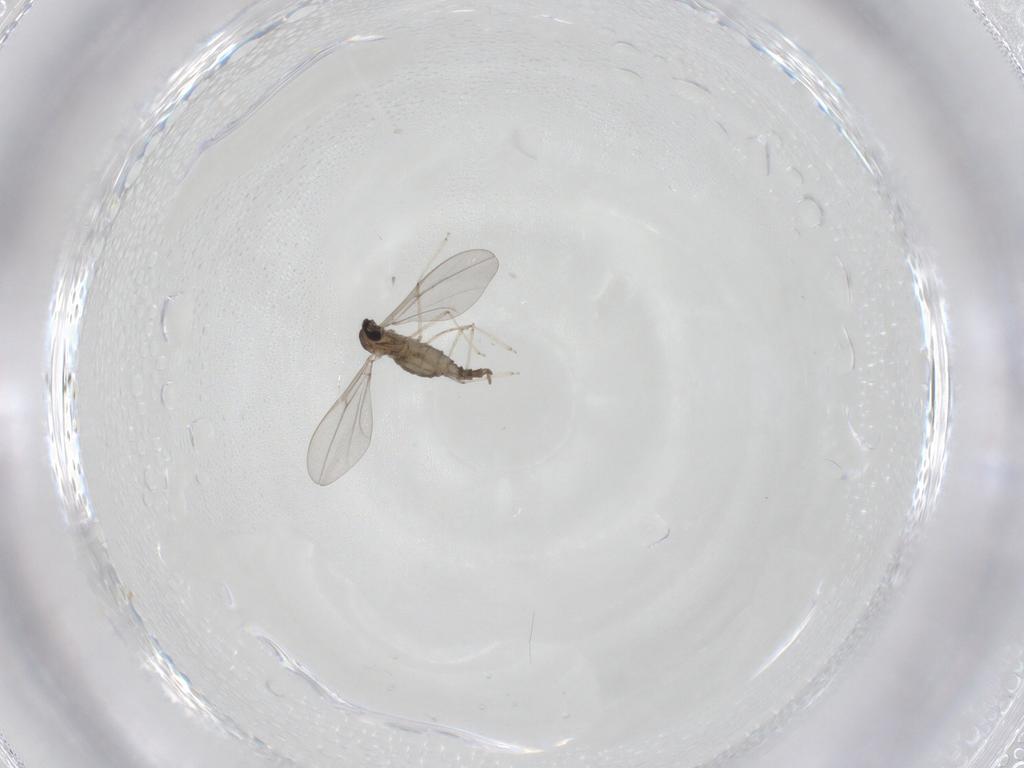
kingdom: Animalia
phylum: Arthropoda
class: Insecta
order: Diptera
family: Cecidomyiidae
